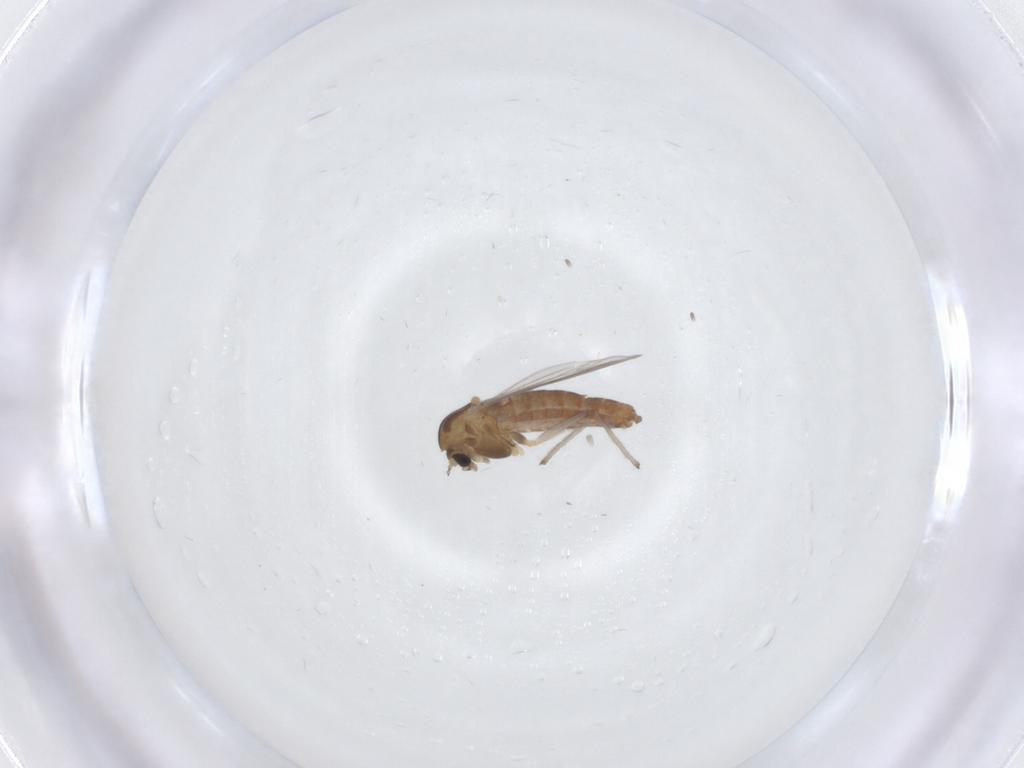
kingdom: Animalia
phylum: Arthropoda
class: Insecta
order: Diptera
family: Chironomidae
